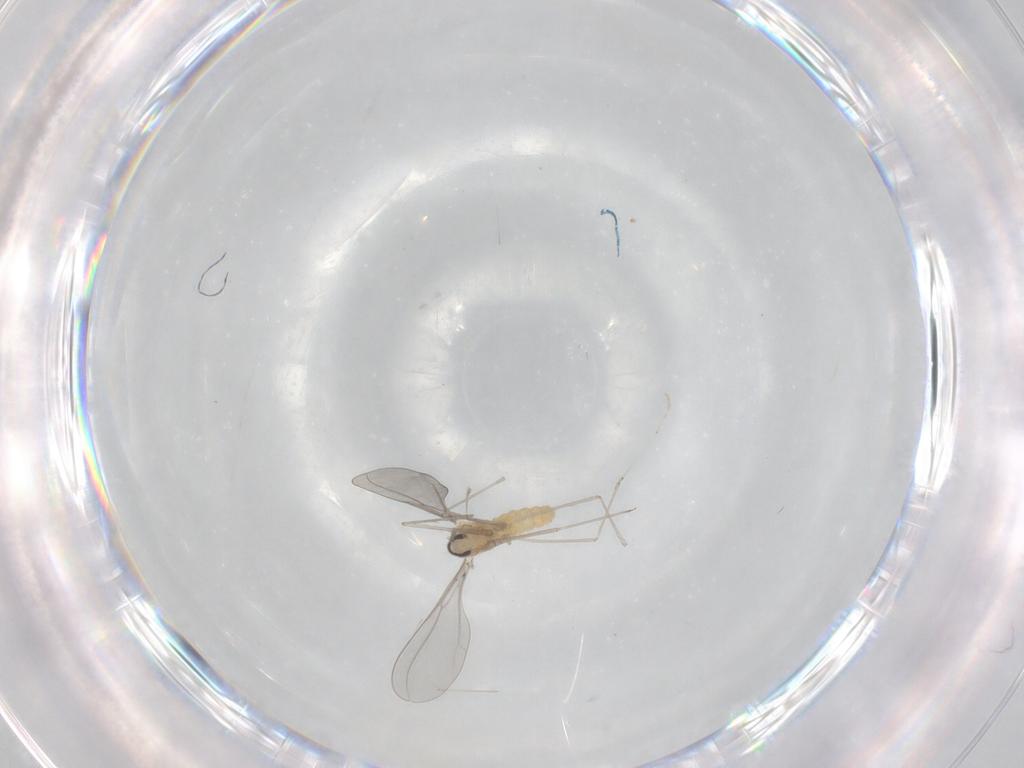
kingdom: Animalia
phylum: Arthropoda
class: Insecta
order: Diptera
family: Cecidomyiidae
